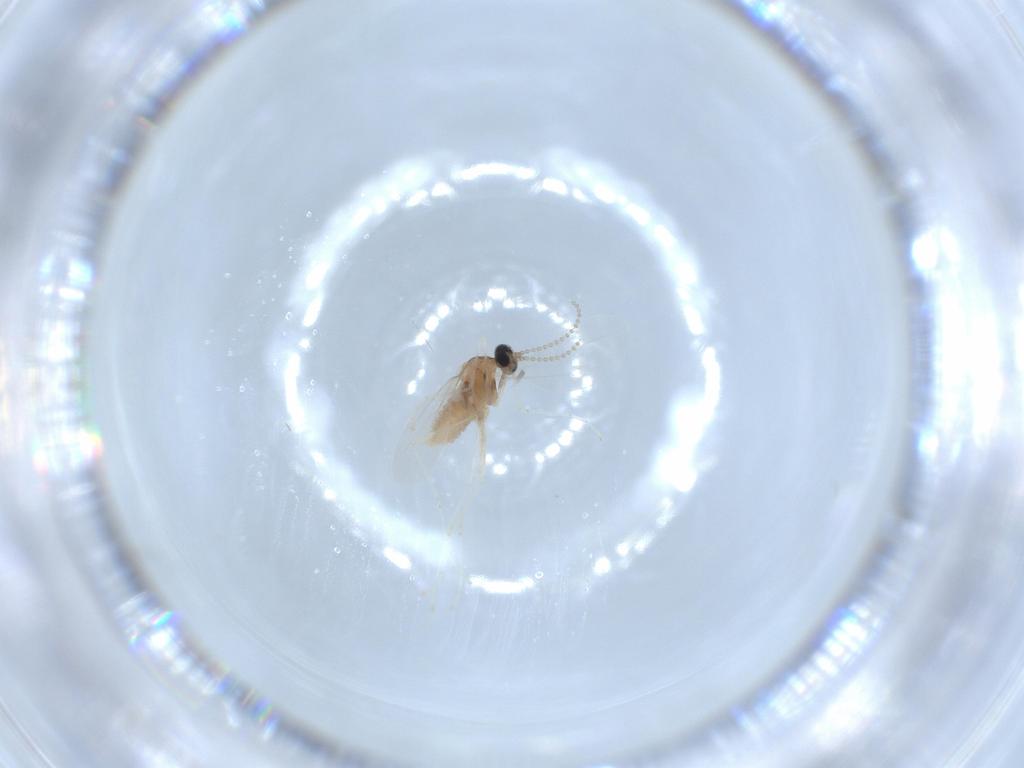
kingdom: Animalia
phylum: Arthropoda
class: Insecta
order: Diptera
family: Cecidomyiidae
